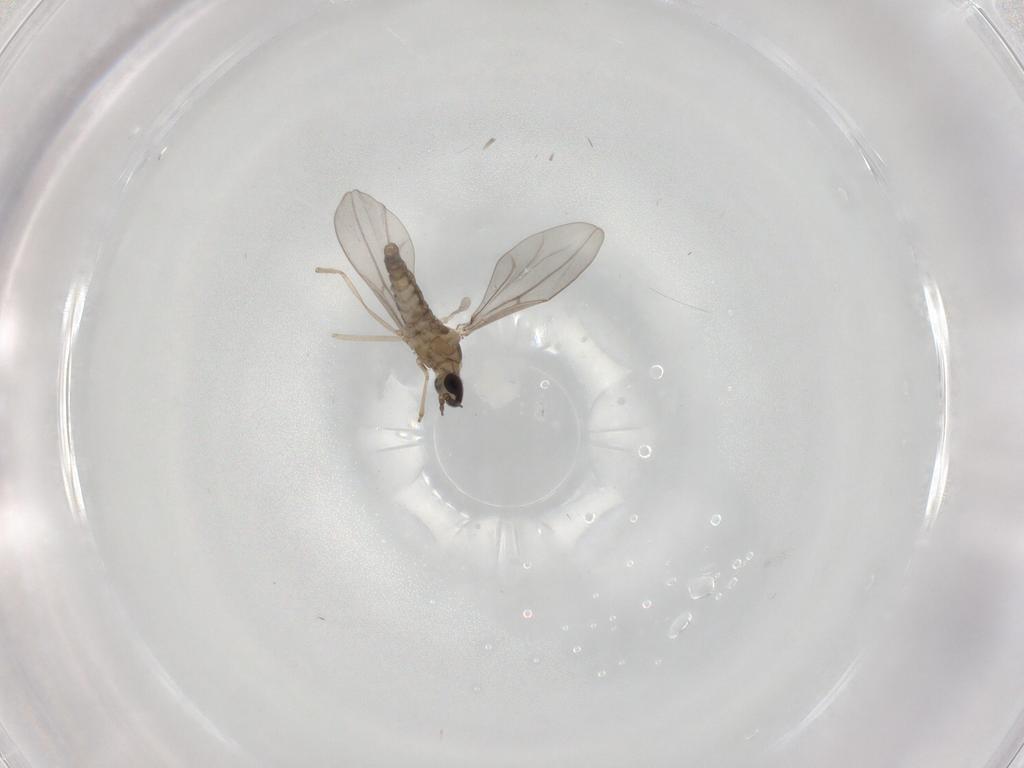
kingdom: Animalia
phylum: Arthropoda
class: Insecta
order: Diptera
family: Cecidomyiidae
